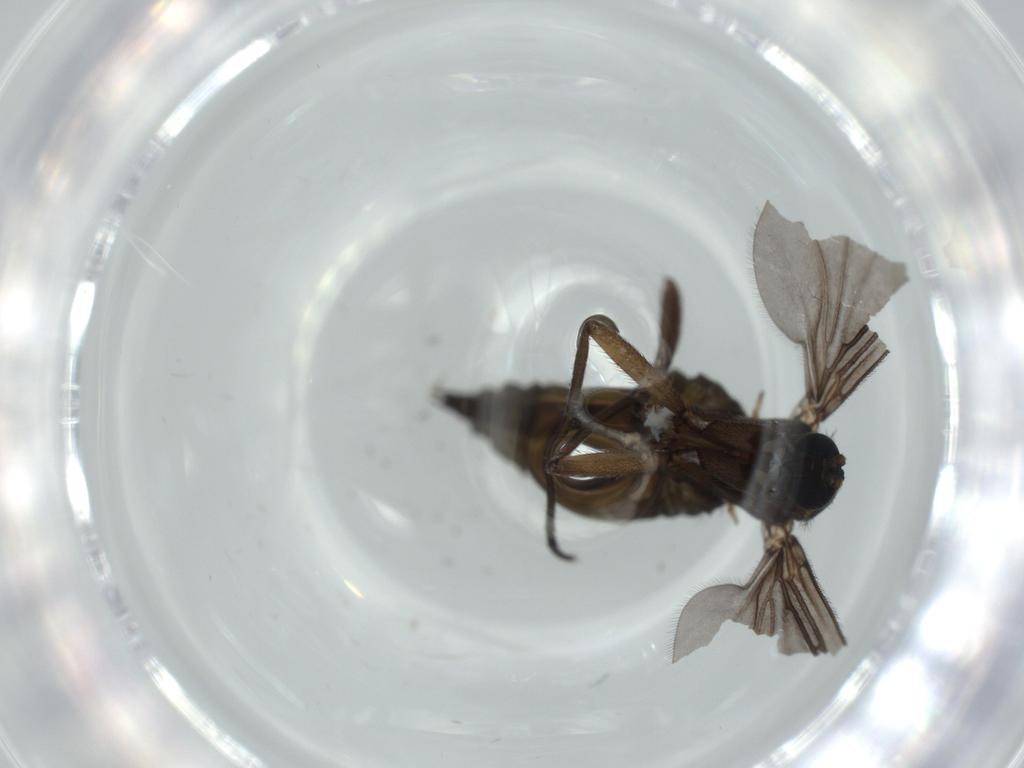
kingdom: Animalia
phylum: Arthropoda
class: Insecta
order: Diptera
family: Sciaridae
